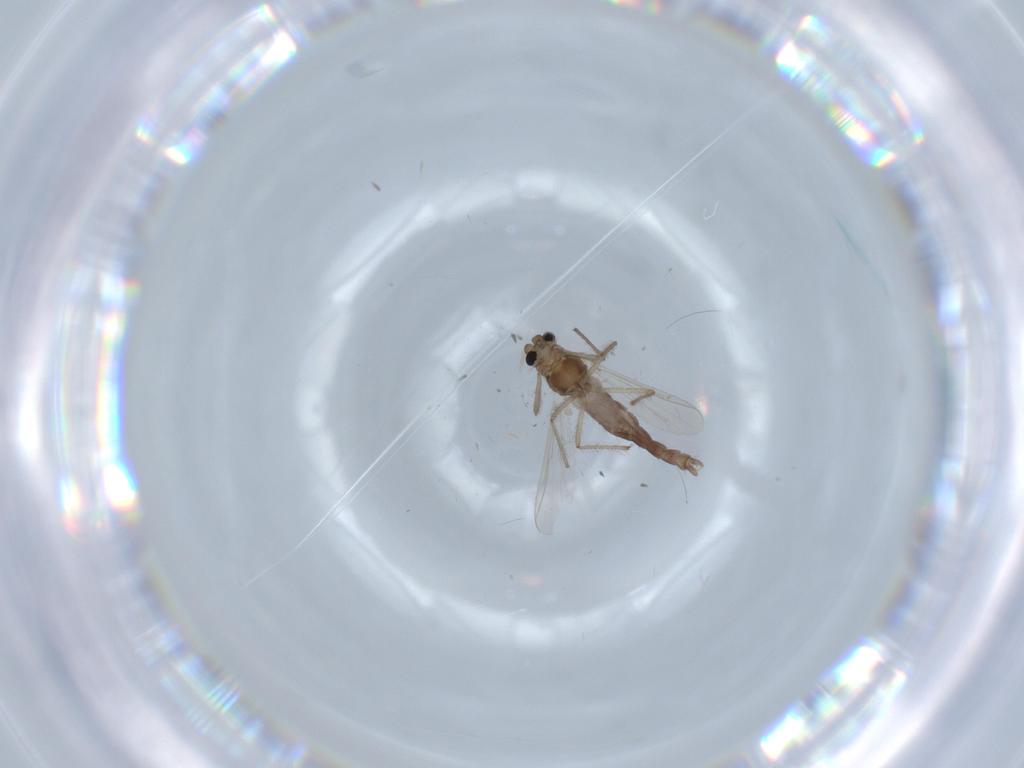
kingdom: Animalia
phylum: Arthropoda
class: Insecta
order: Diptera
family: Chironomidae
